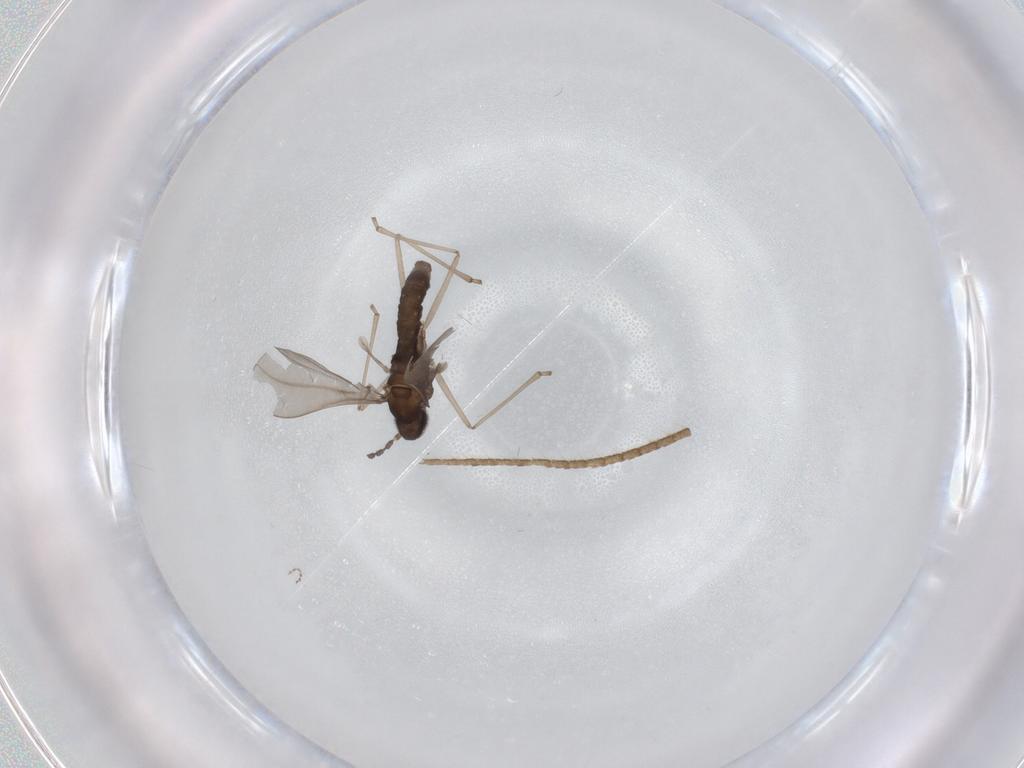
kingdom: Animalia
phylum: Arthropoda
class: Insecta
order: Diptera
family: Cecidomyiidae
